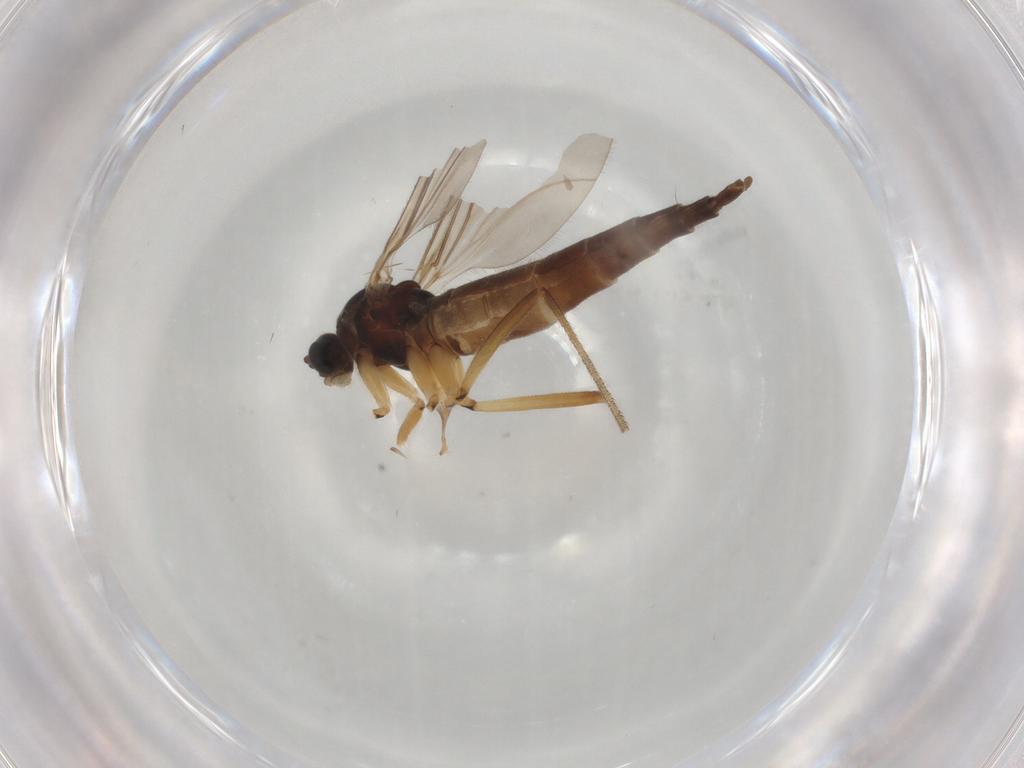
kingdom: Animalia
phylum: Arthropoda
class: Insecta
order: Diptera
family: Sciaridae
